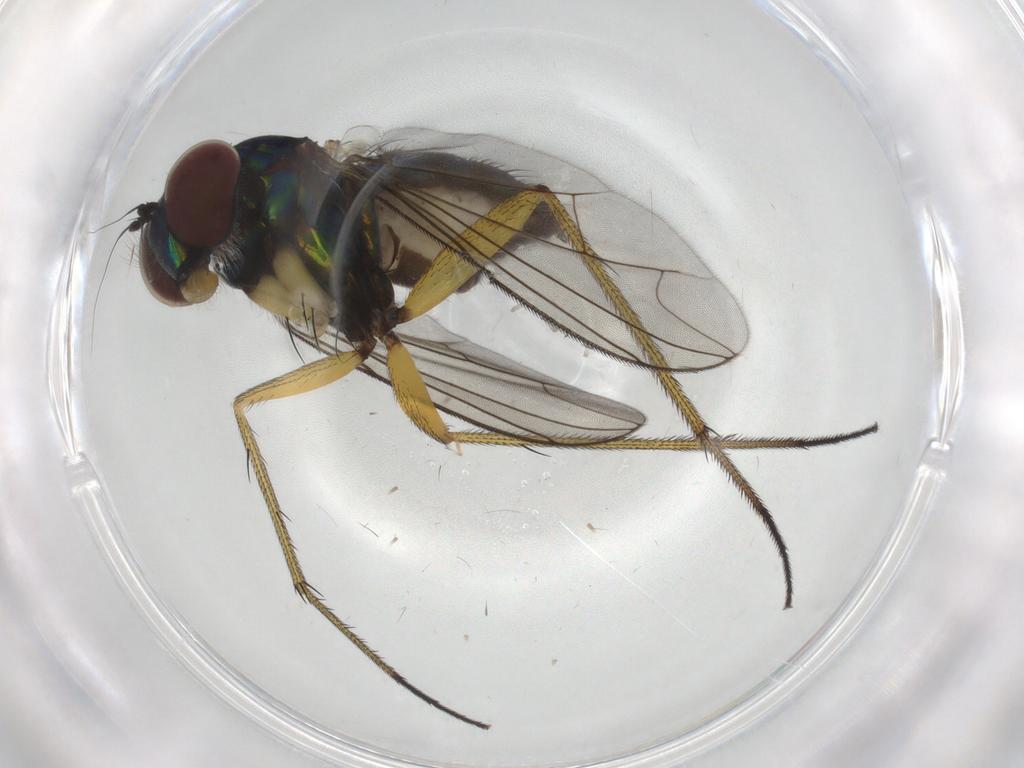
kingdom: Animalia
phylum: Arthropoda
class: Insecta
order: Diptera
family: Dolichopodidae
